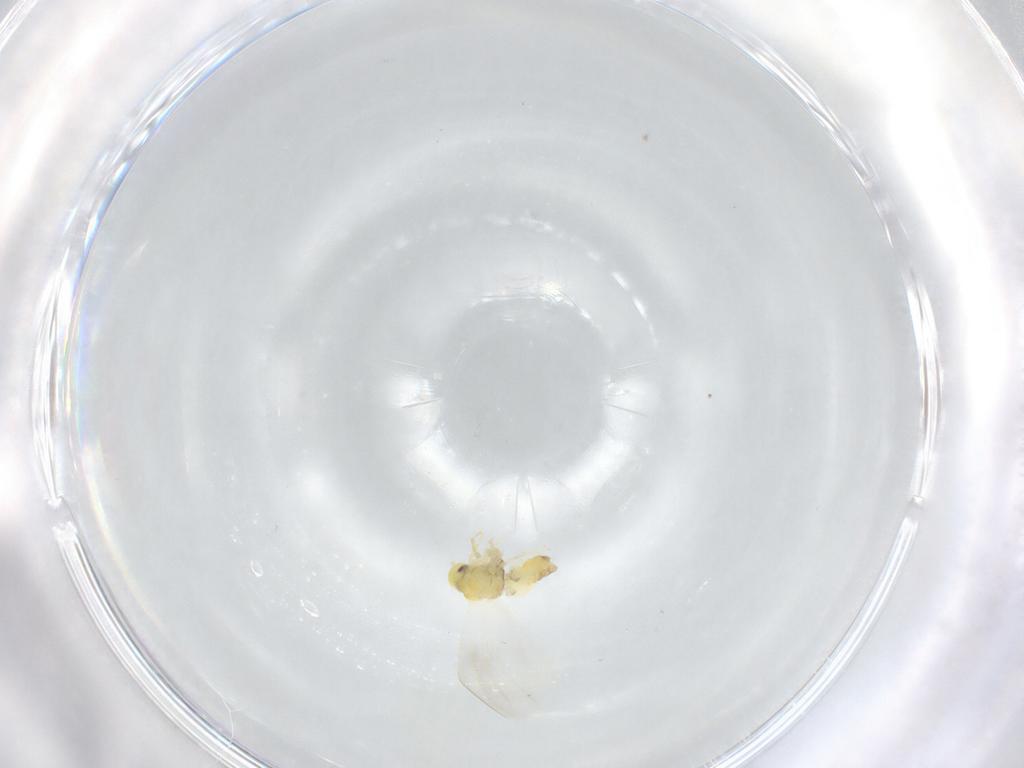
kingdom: Animalia
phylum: Arthropoda
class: Insecta
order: Hemiptera
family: Aleyrodidae
